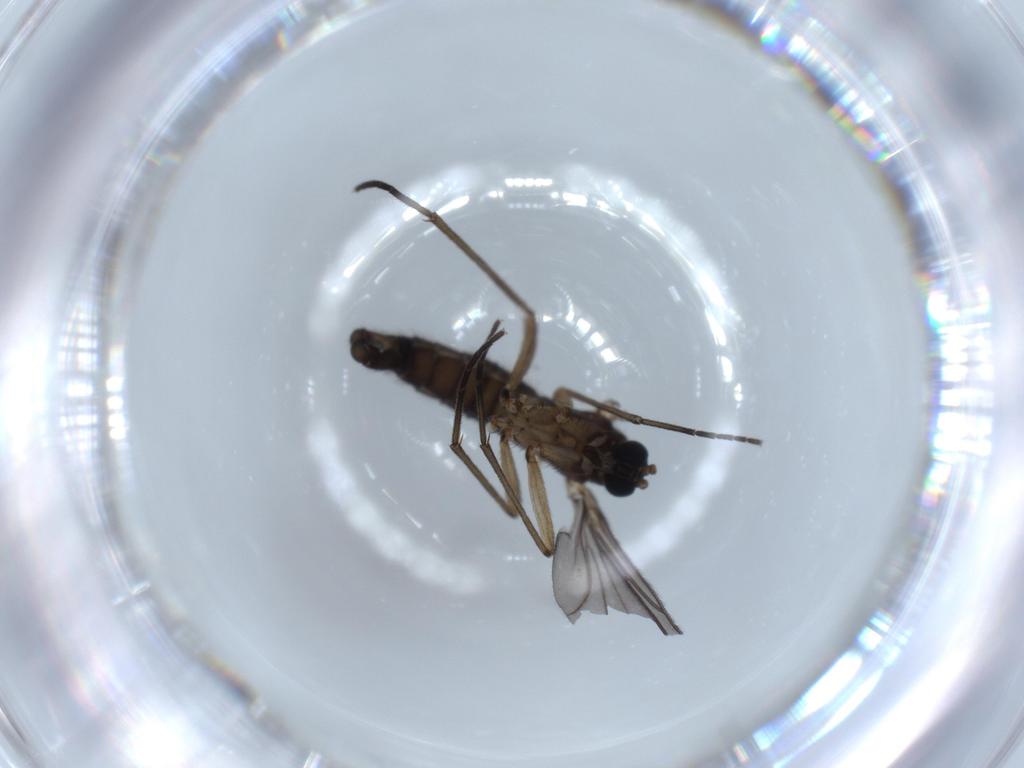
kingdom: Animalia
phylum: Arthropoda
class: Insecta
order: Diptera
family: Sciaridae
